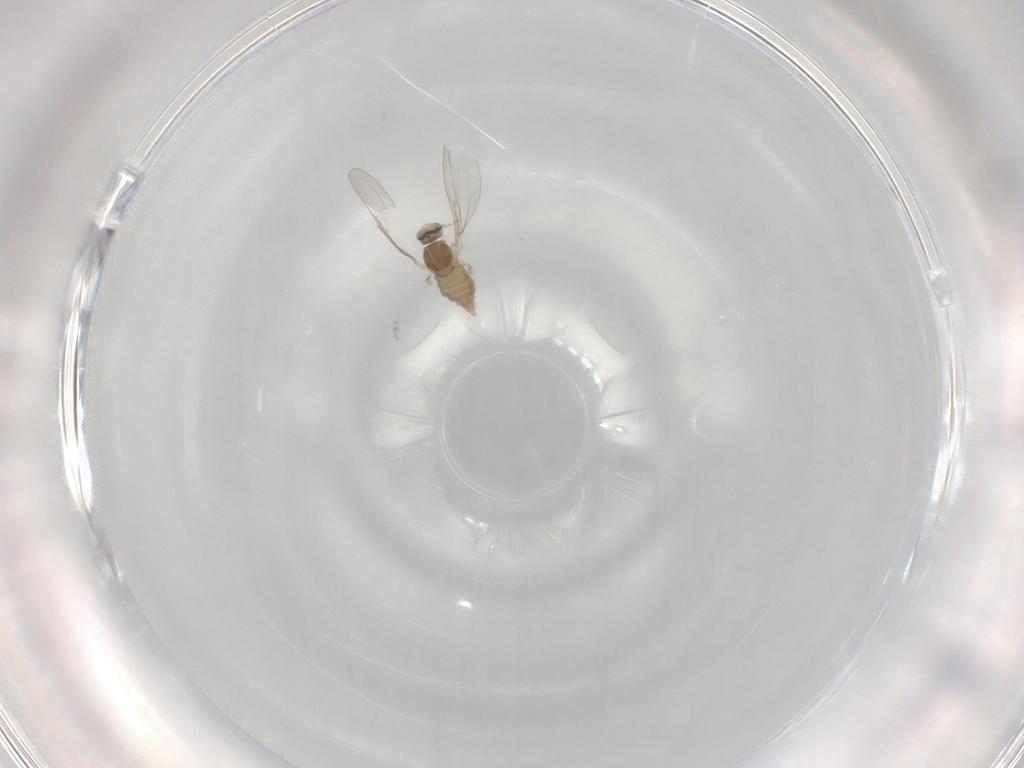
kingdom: Animalia
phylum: Arthropoda
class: Insecta
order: Diptera
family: Cecidomyiidae
